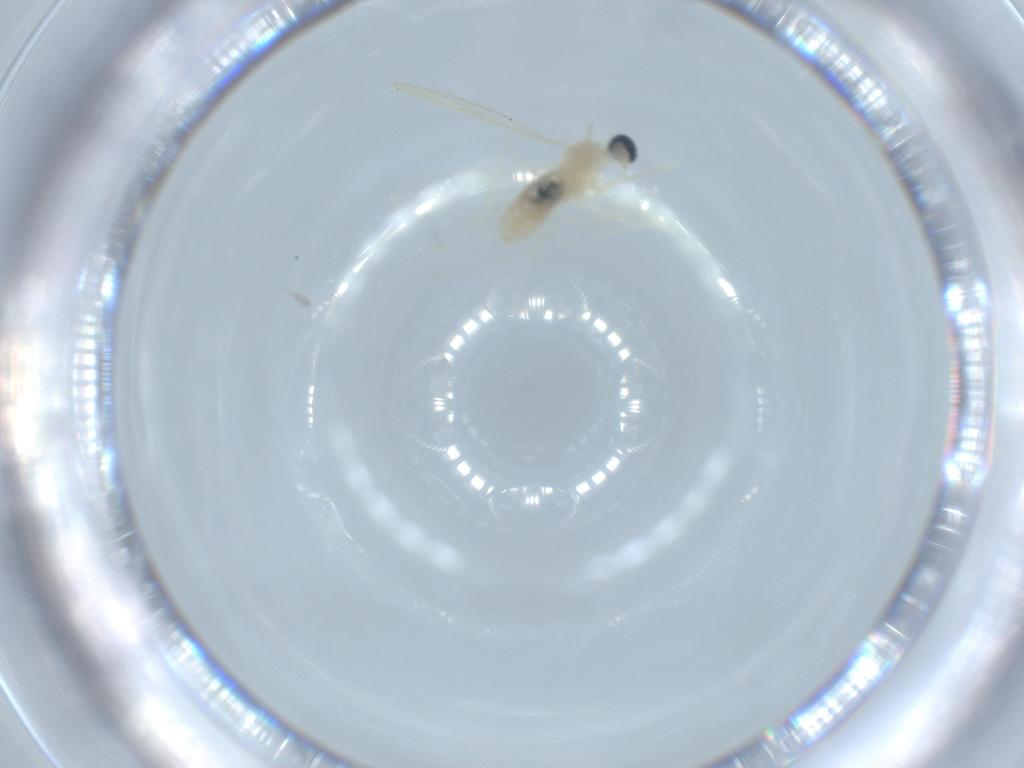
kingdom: Animalia
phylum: Arthropoda
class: Insecta
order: Diptera
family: Cecidomyiidae
